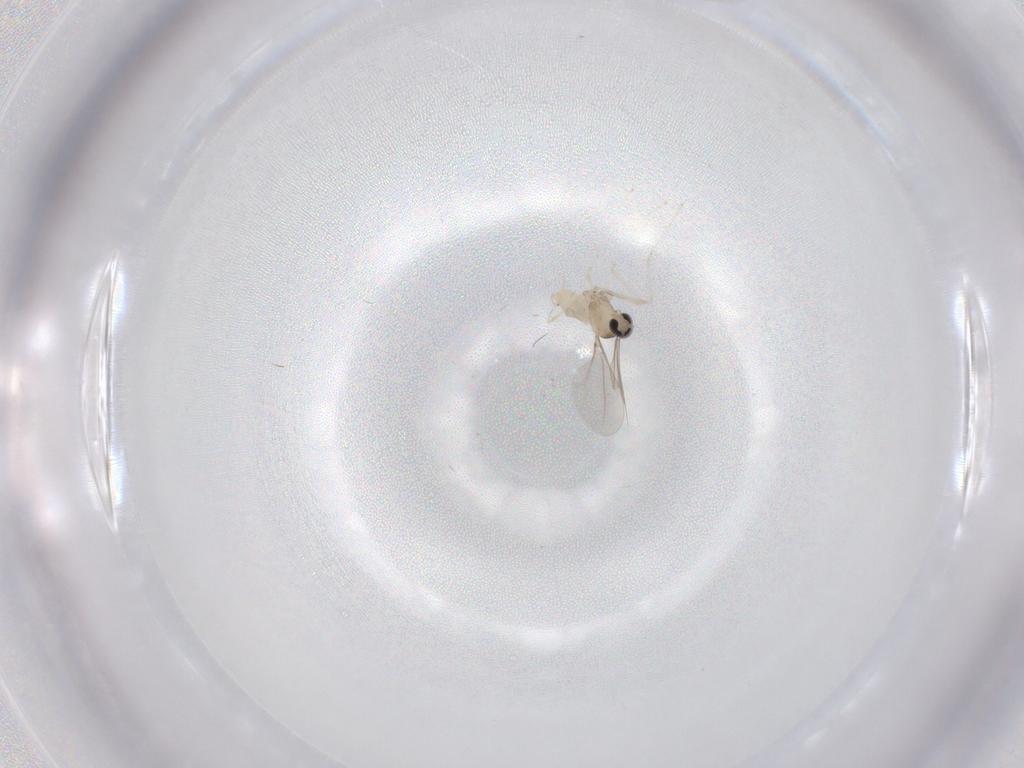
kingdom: Animalia
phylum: Arthropoda
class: Insecta
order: Diptera
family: Cecidomyiidae
